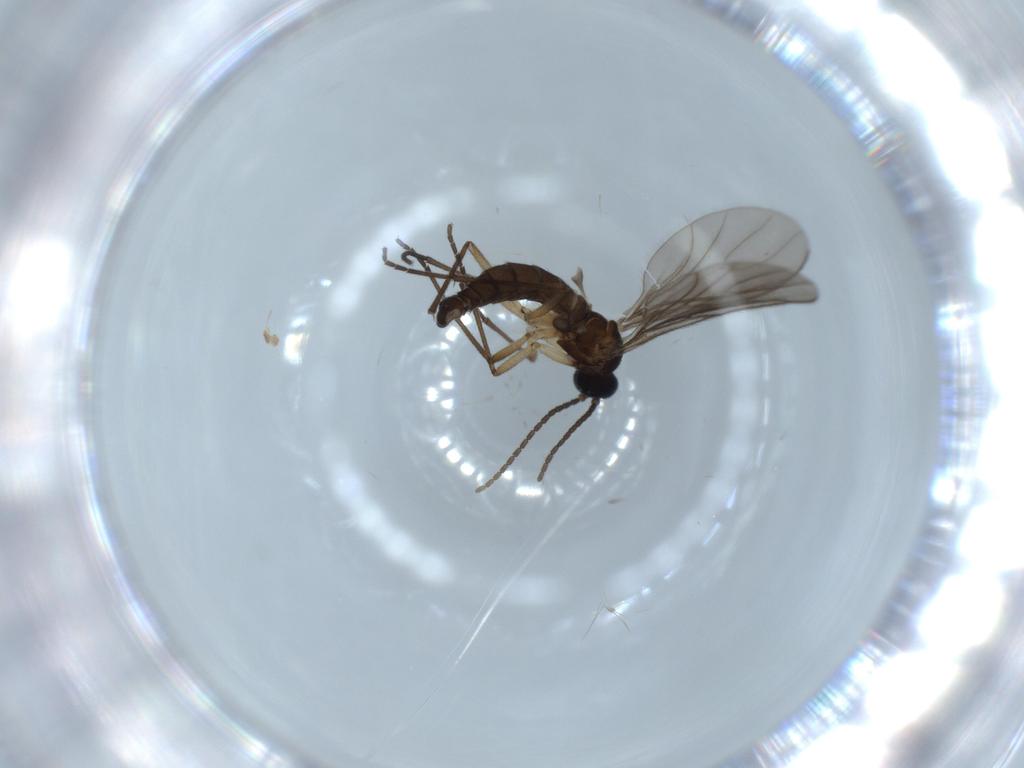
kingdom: Animalia
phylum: Arthropoda
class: Insecta
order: Diptera
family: Sciaridae
